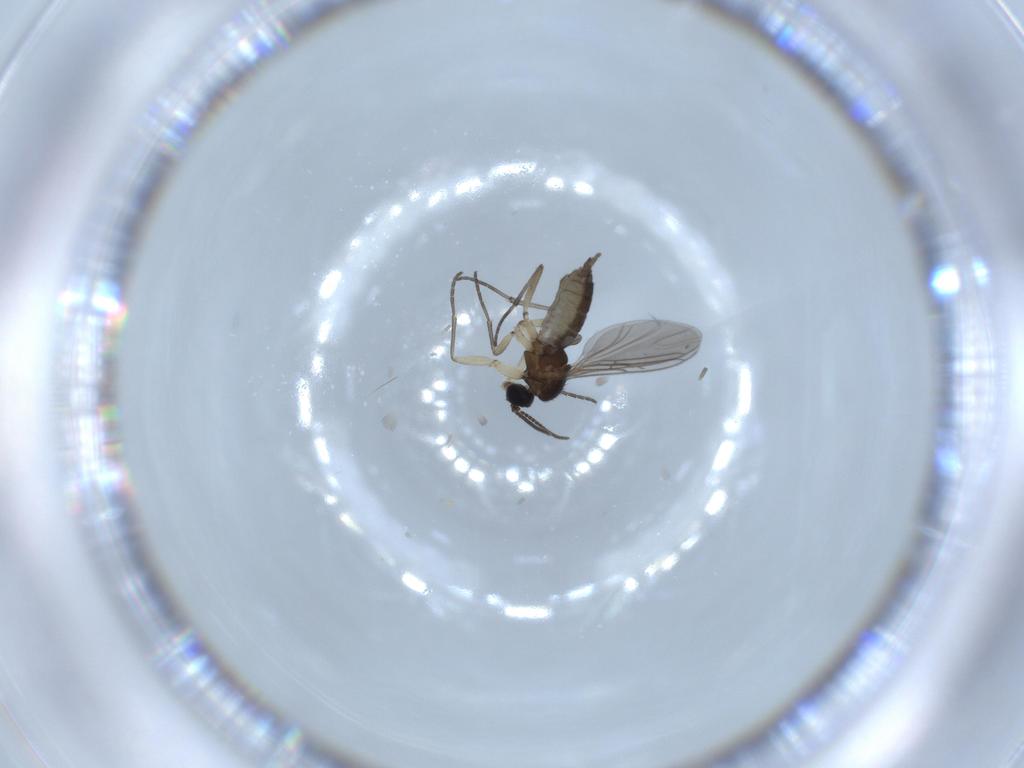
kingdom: Animalia
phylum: Arthropoda
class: Insecta
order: Diptera
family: Sciaridae
